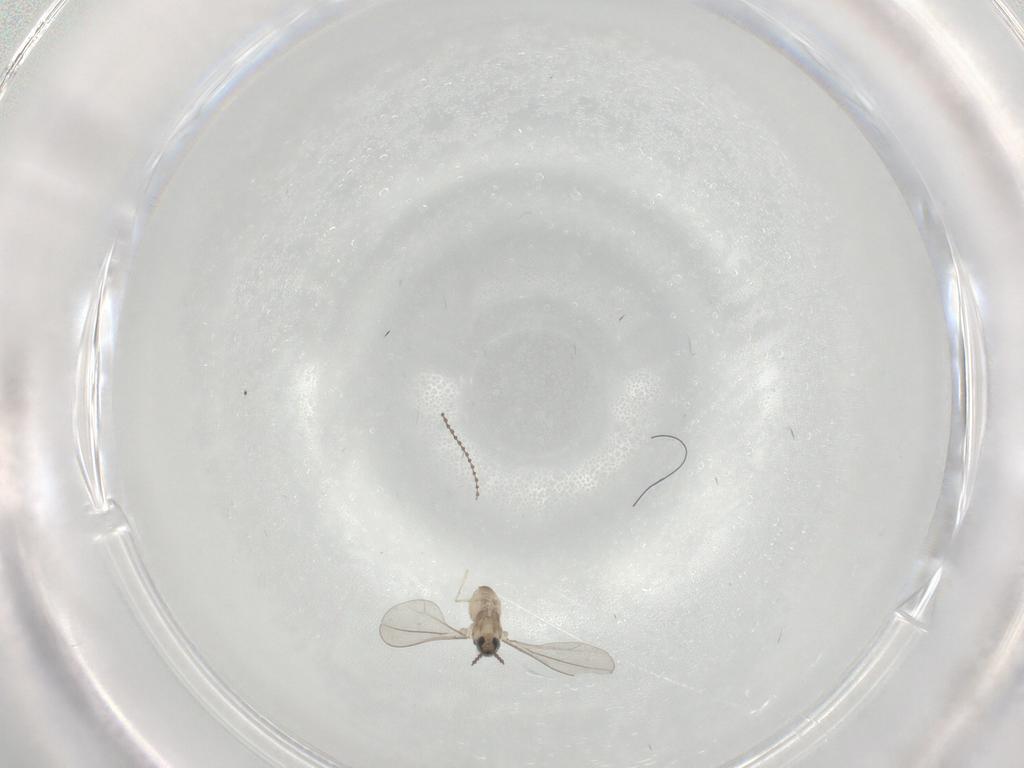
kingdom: Animalia
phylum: Arthropoda
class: Insecta
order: Diptera
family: Cecidomyiidae
